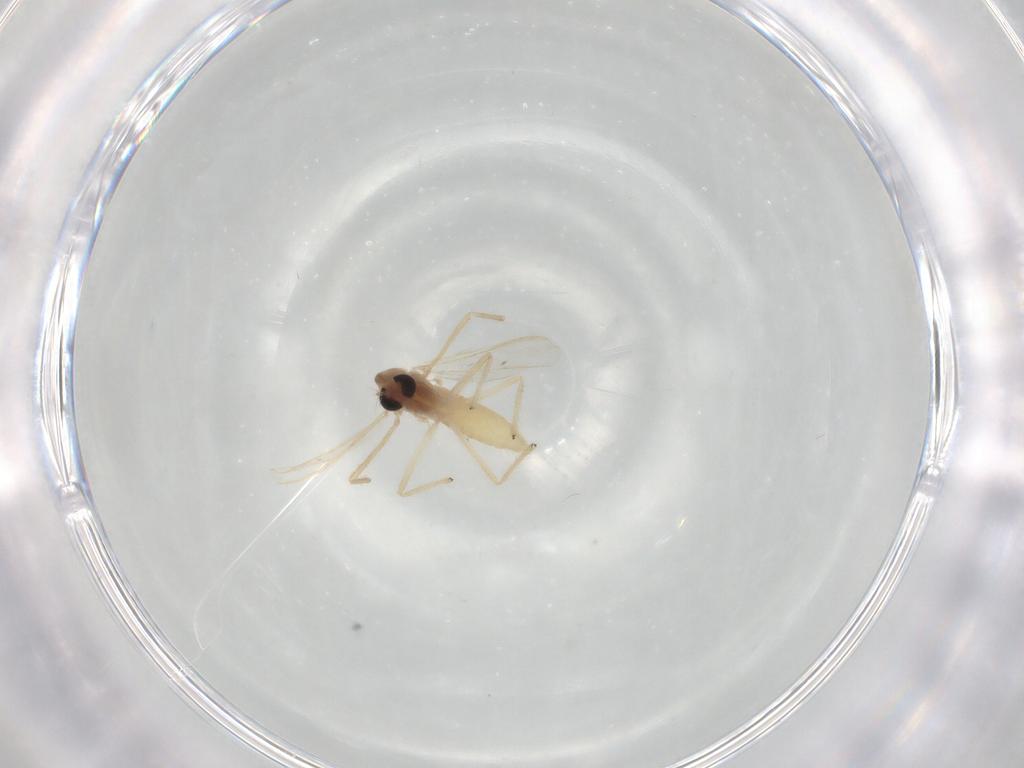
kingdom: Animalia
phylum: Arthropoda
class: Insecta
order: Diptera
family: Chironomidae
